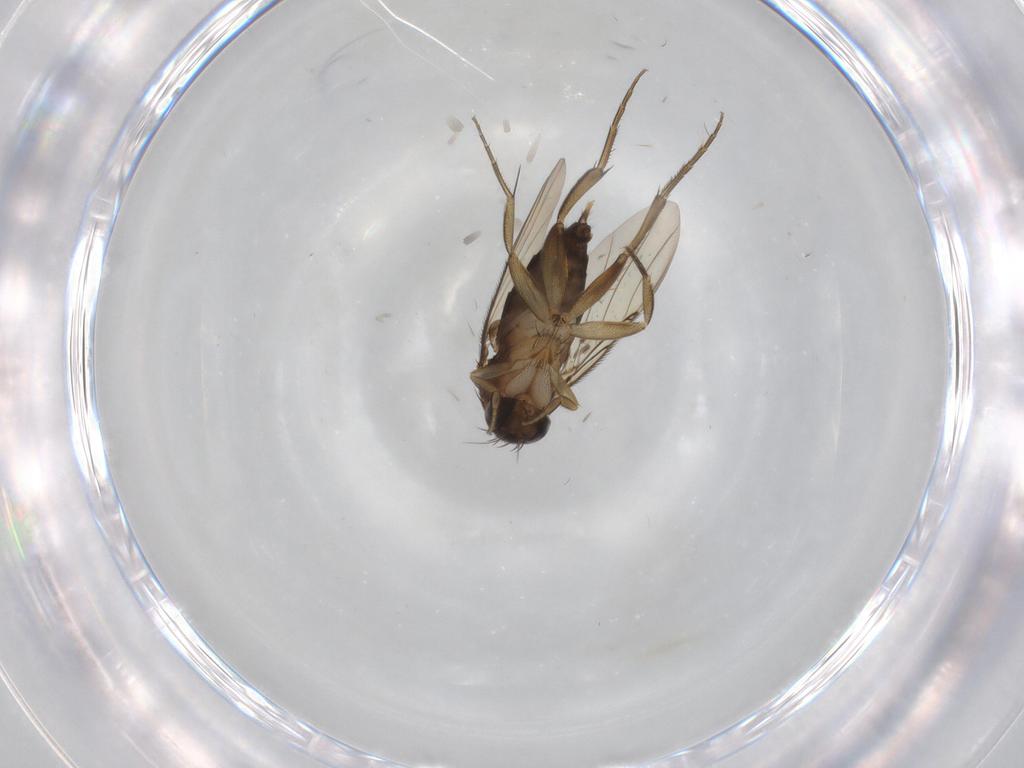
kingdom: Animalia
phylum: Arthropoda
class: Insecta
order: Diptera
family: Phoridae
